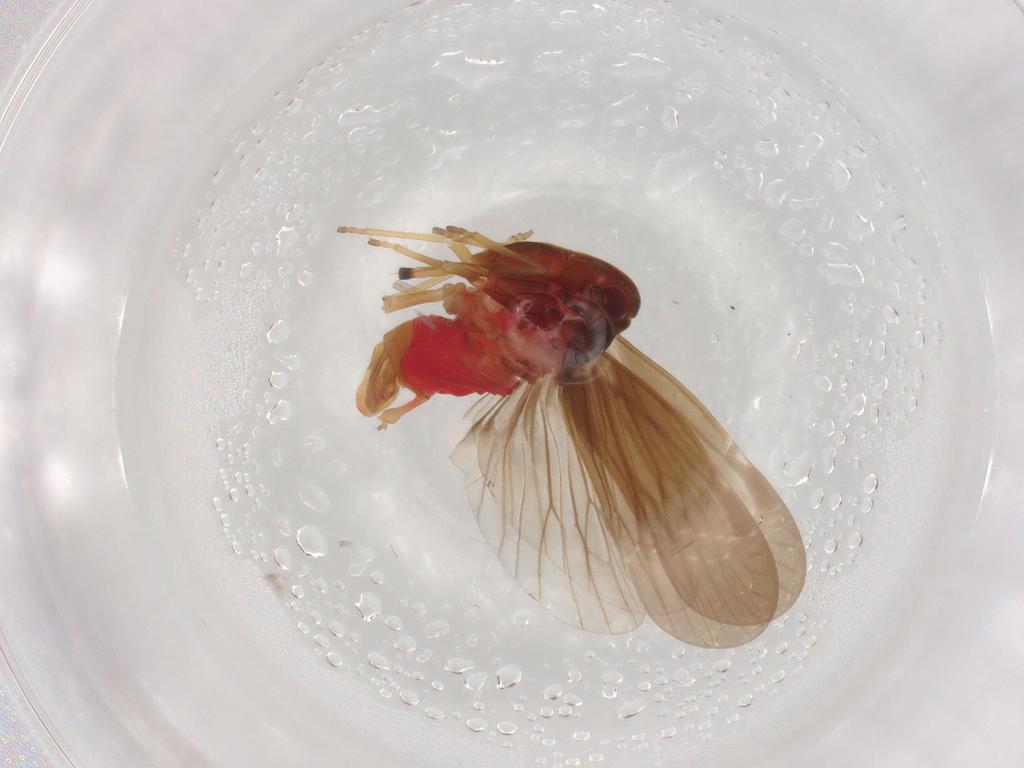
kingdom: Animalia
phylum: Arthropoda
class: Insecta
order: Hemiptera
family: Derbidae
